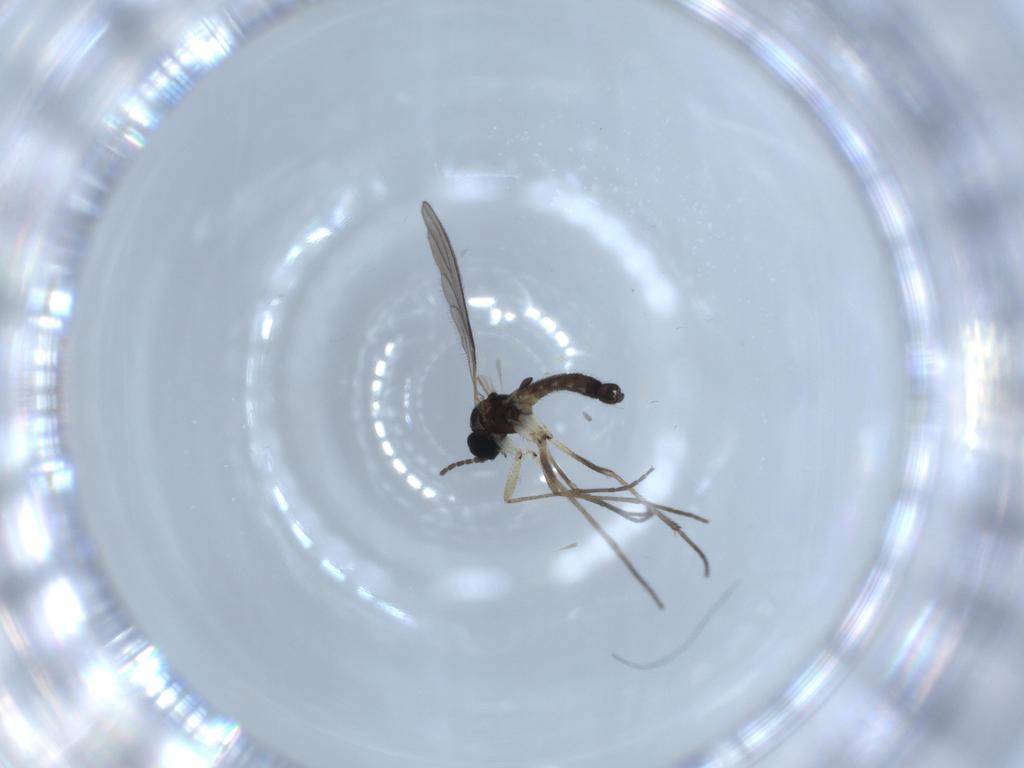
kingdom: Animalia
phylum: Arthropoda
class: Insecta
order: Diptera
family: Sciaridae
